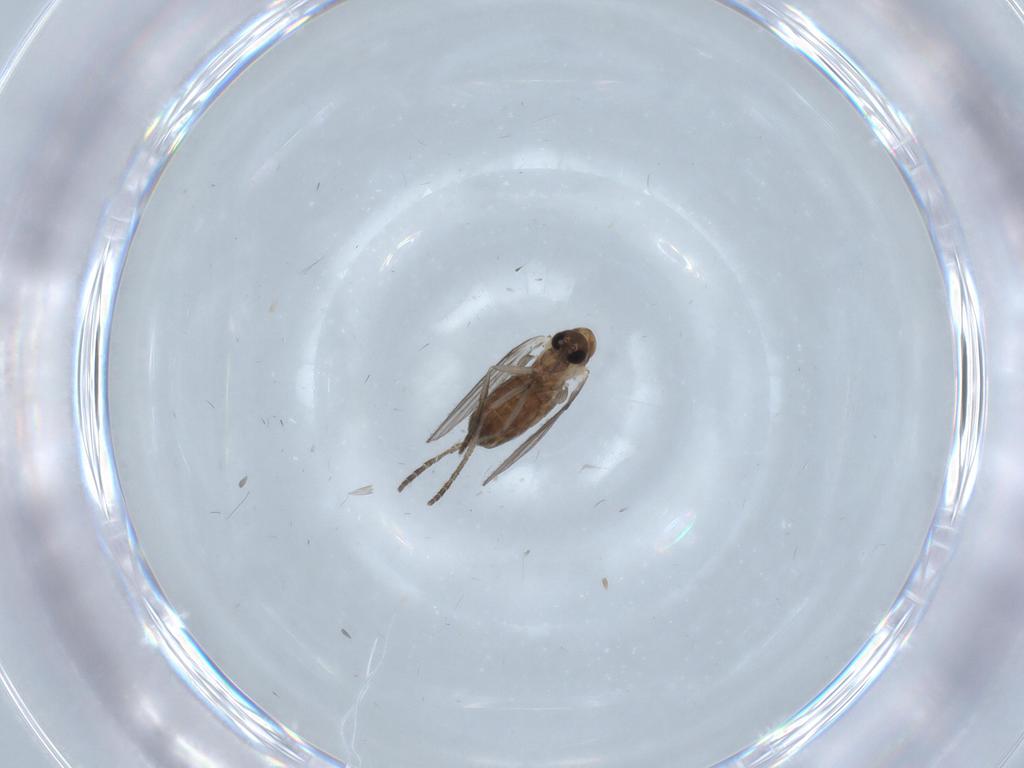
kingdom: Animalia
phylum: Arthropoda
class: Insecta
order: Diptera
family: Psychodidae
